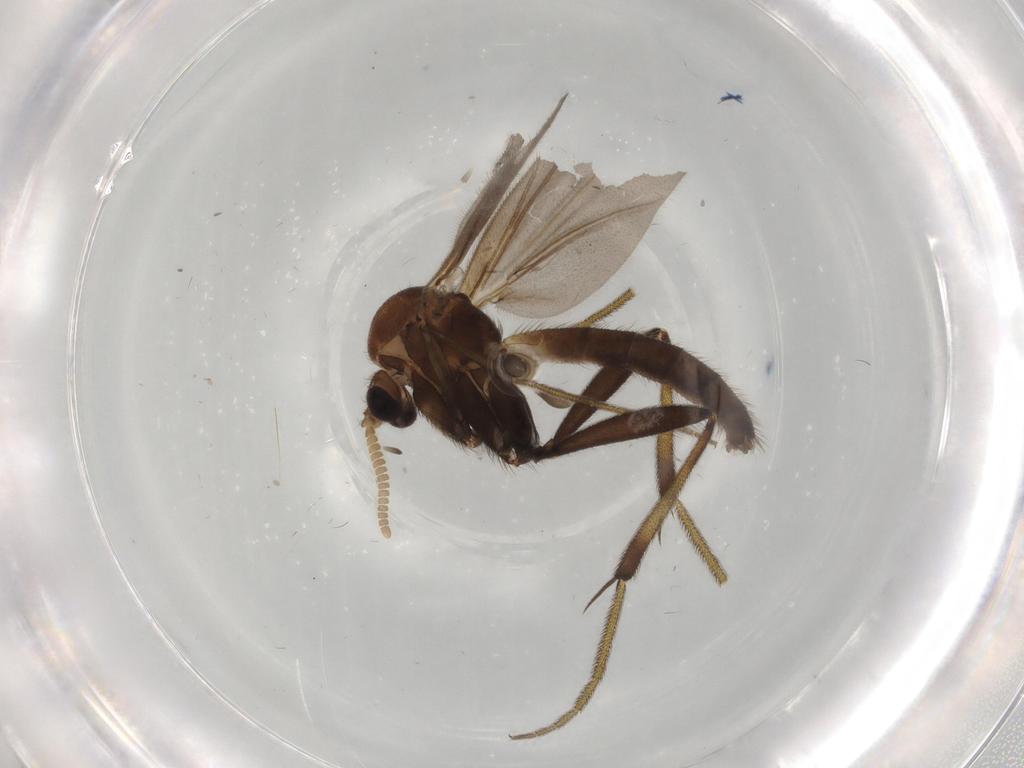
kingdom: Animalia
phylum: Arthropoda
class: Insecta
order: Diptera
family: Mycetophilidae
